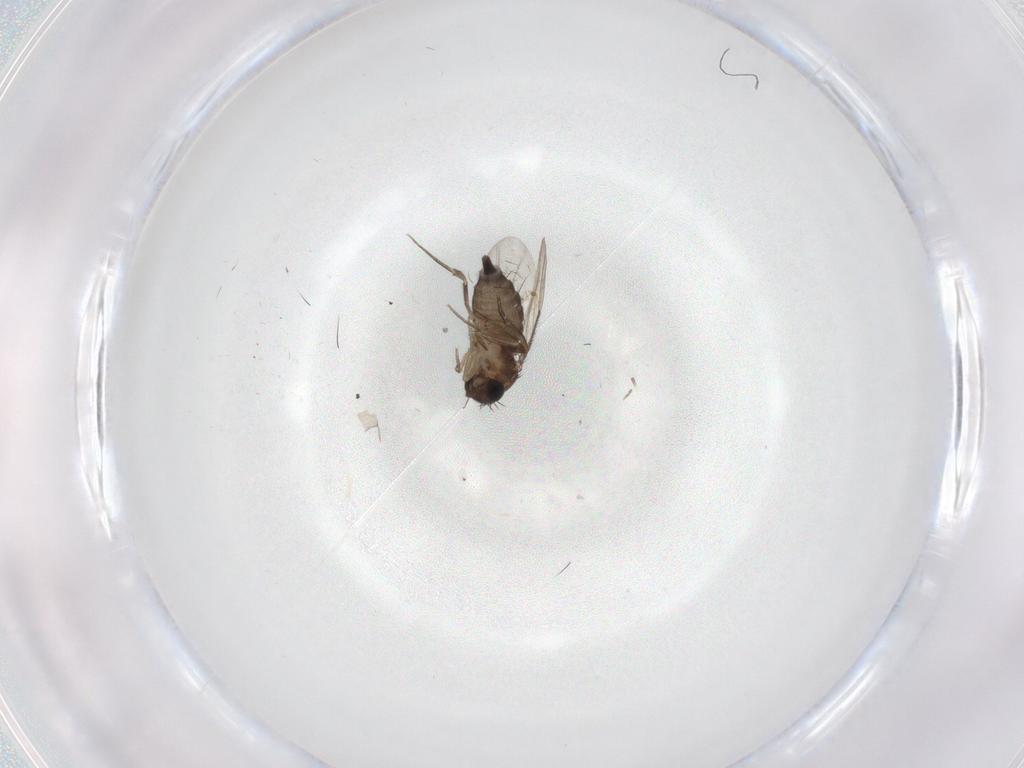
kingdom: Animalia
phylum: Arthropoda
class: Insecta
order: Diptera
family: Phoridae
